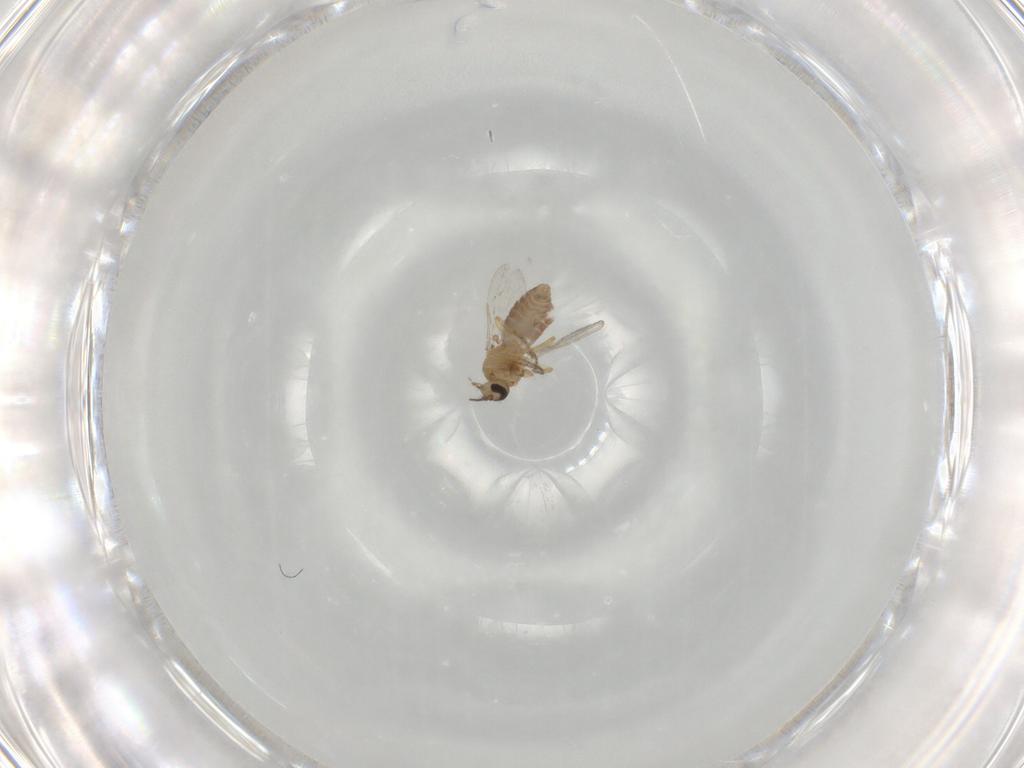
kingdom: Animalia
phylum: Arthropoda
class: Insecta
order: Diptera
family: Ceratopogonidae
